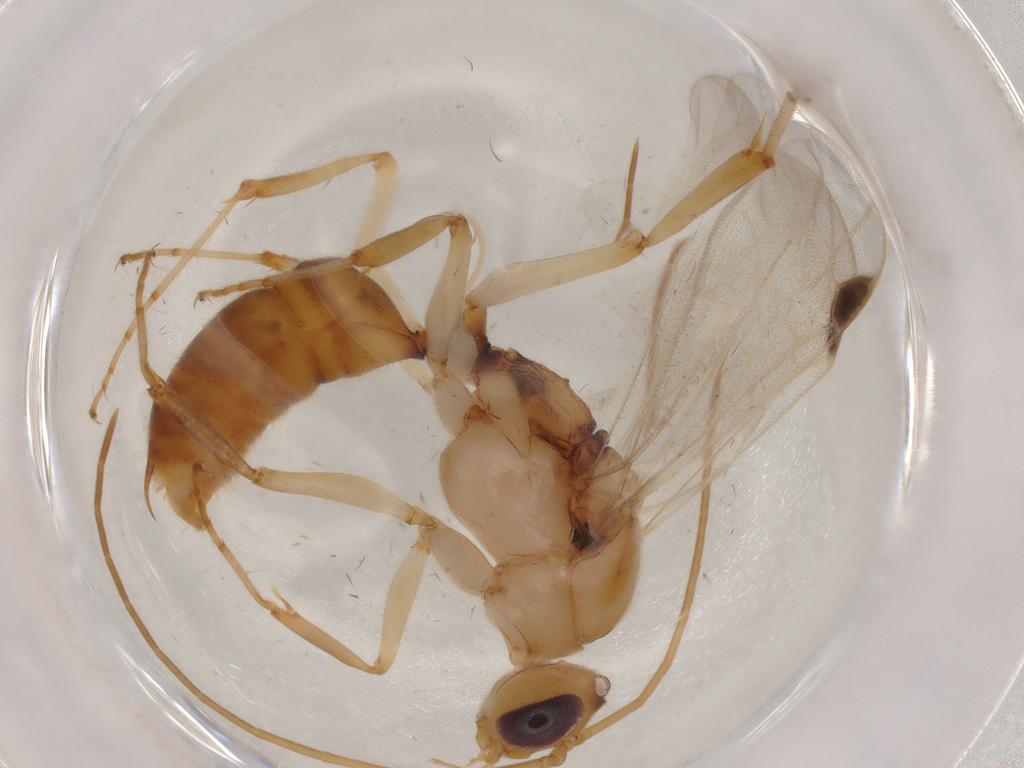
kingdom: Animalia
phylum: Arthropoda
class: Insecta
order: Hymenoptera
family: Formicidae
